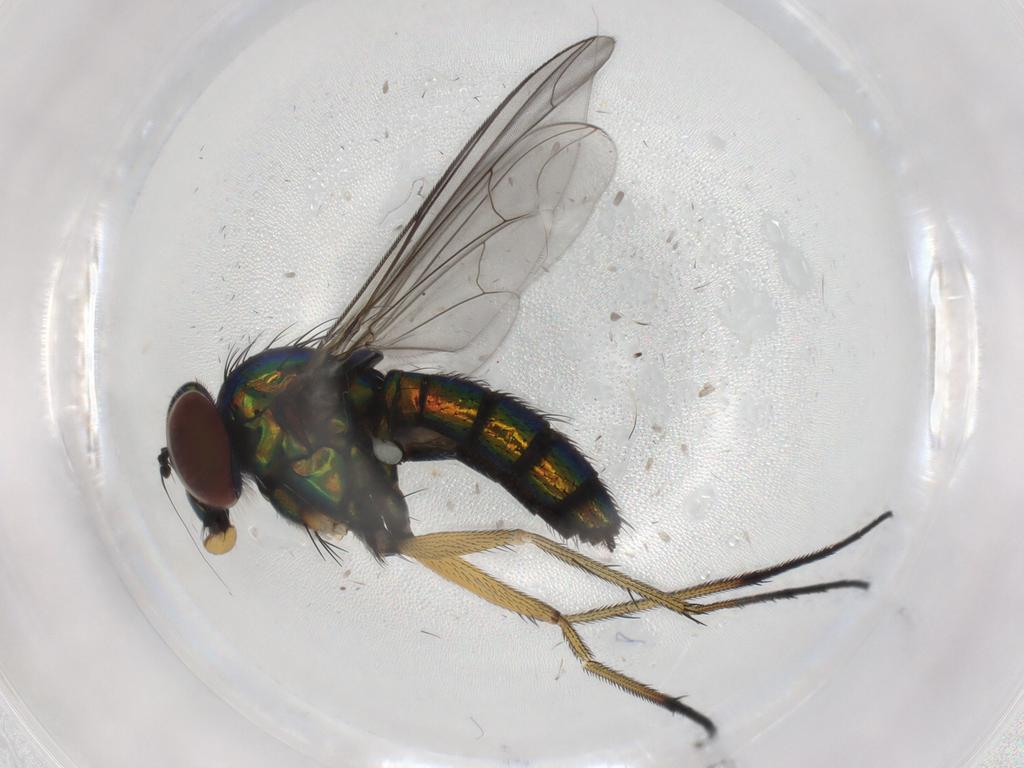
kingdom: Animalia
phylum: Arthropoda
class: Insecta
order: Diptera
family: Dolichopodidae
